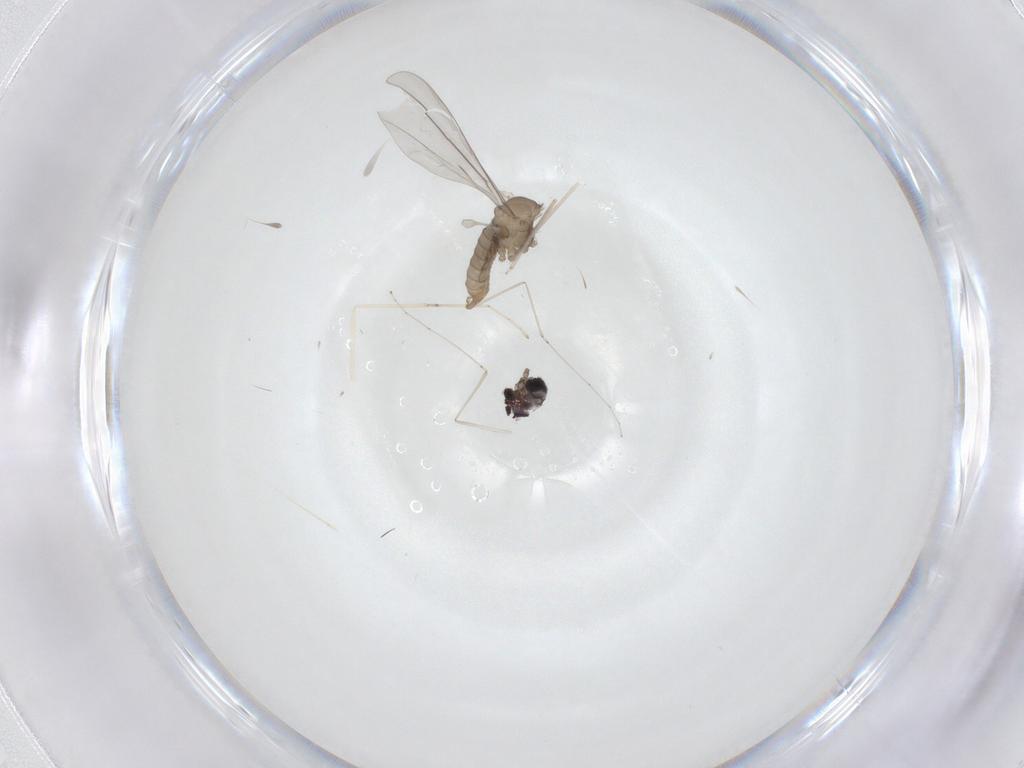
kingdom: Animalia
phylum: Arthropoda
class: Insecta
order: Diptera
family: Cecidomyiidae
